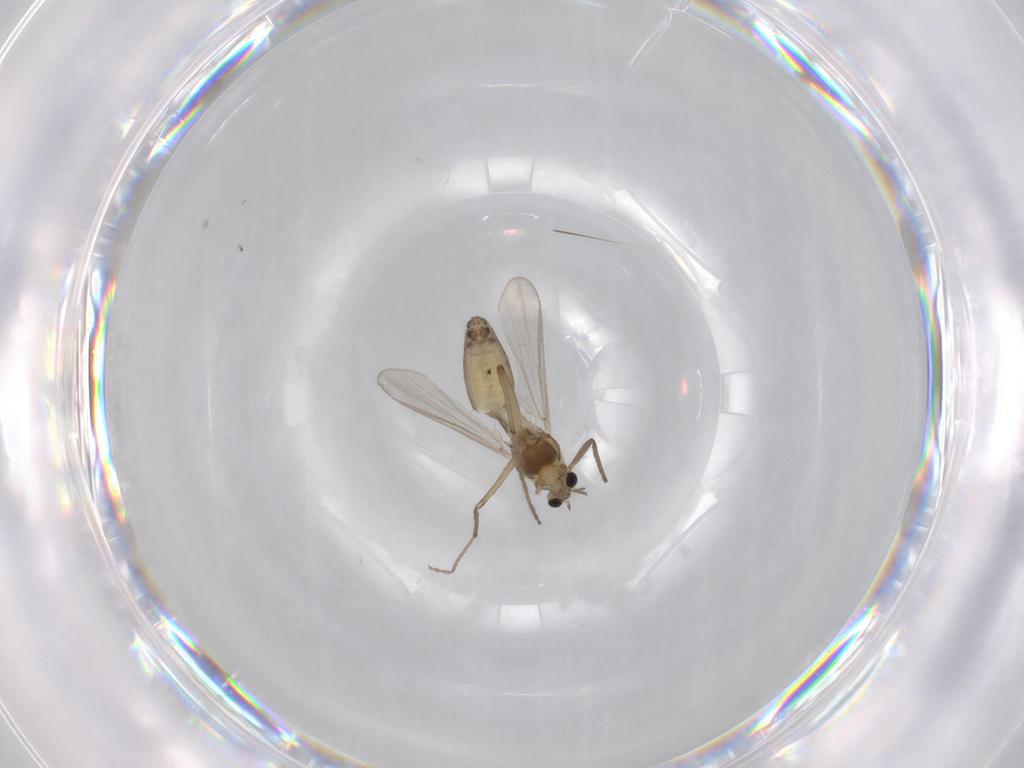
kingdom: Animalia
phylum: Arthropoda
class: Insecta
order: Diptera
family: Chironomidae
